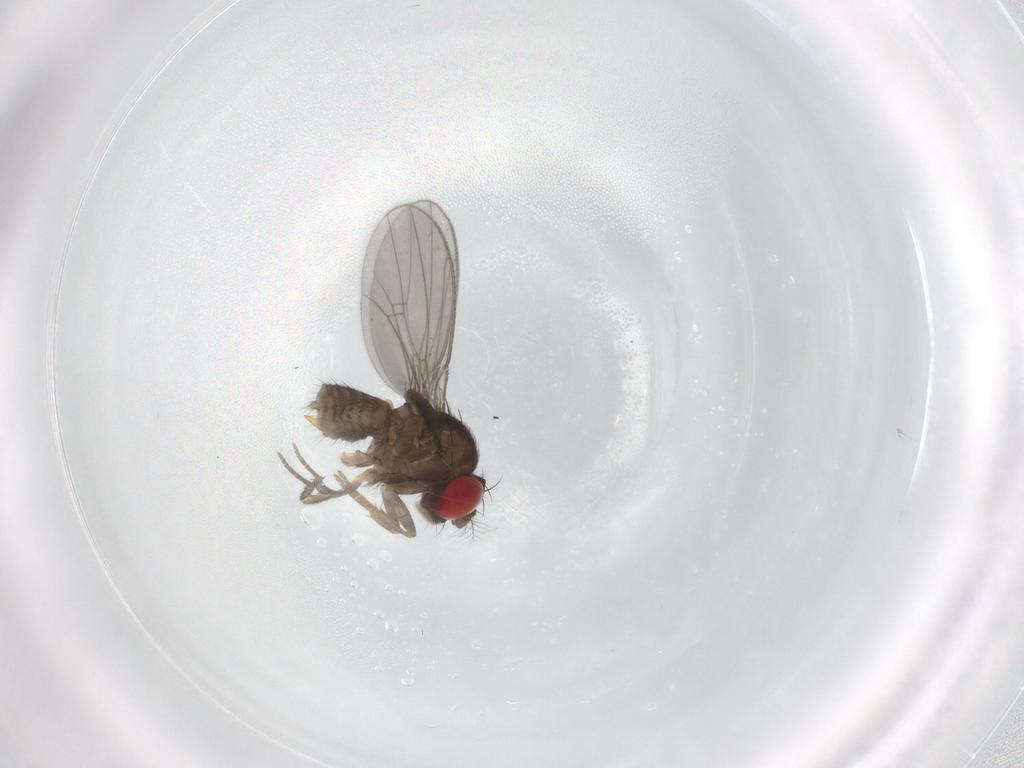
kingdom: Animalia
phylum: Arthropoda
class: Insecta
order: Diptera
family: Drosophilidae
